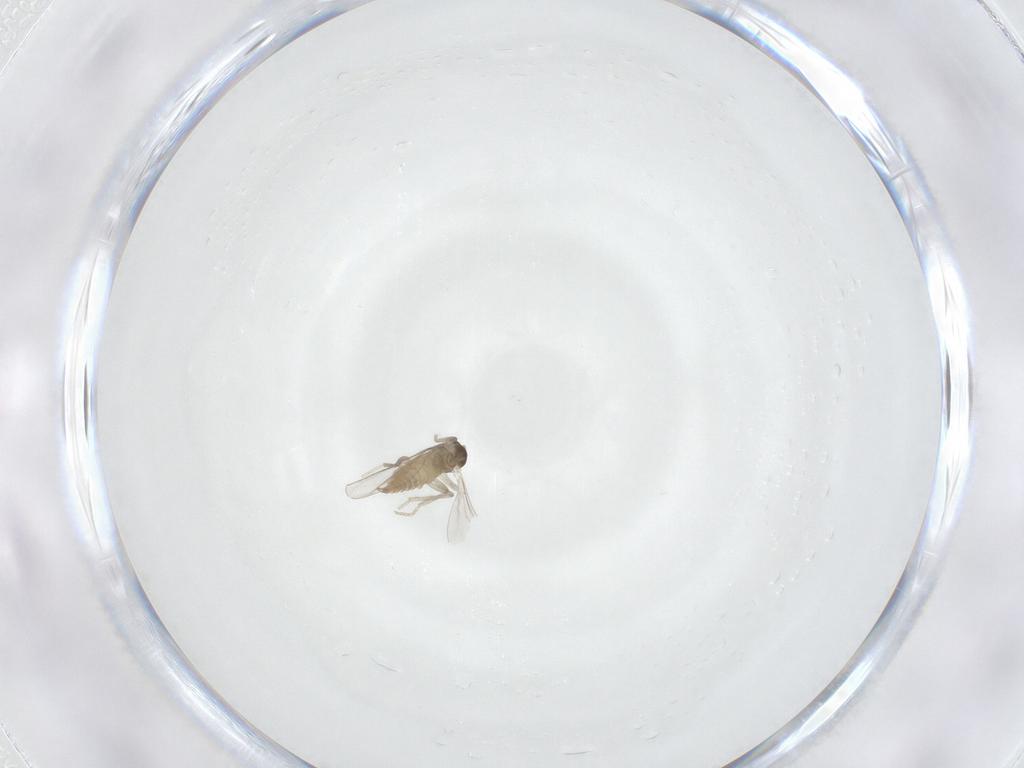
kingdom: Animalia
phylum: Arthropoda
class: Insecta
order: Diptera
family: Cecidomyiidae
